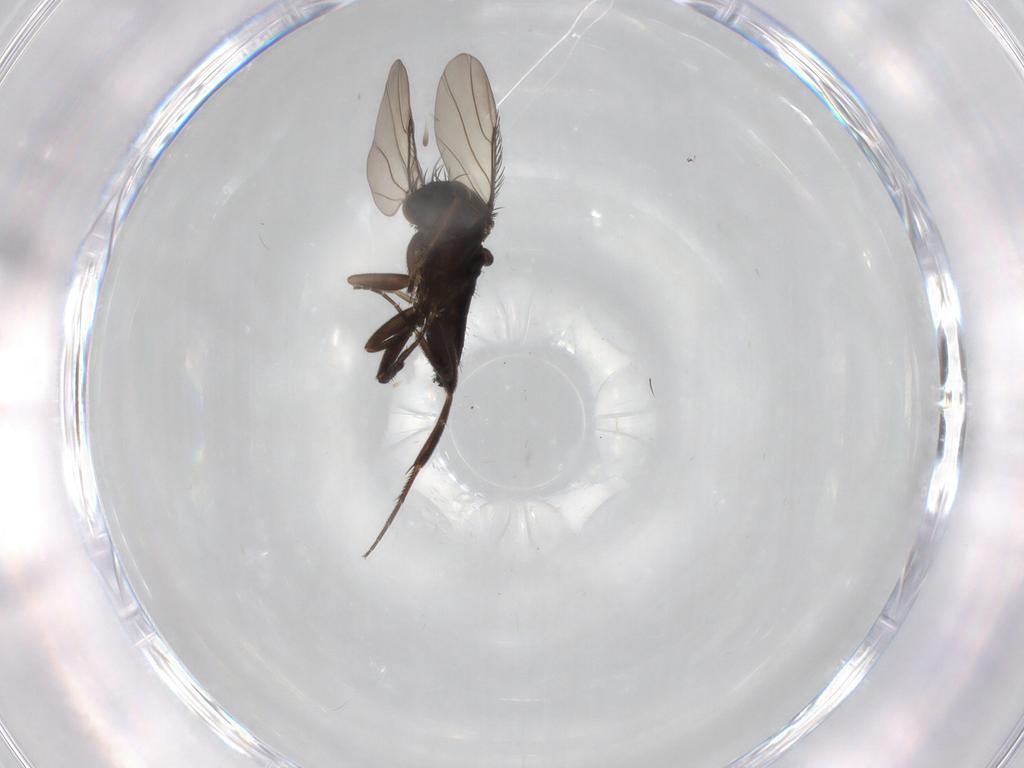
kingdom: Animalia
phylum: Arthropoda
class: Insecta
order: Diptera
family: Phoridae
